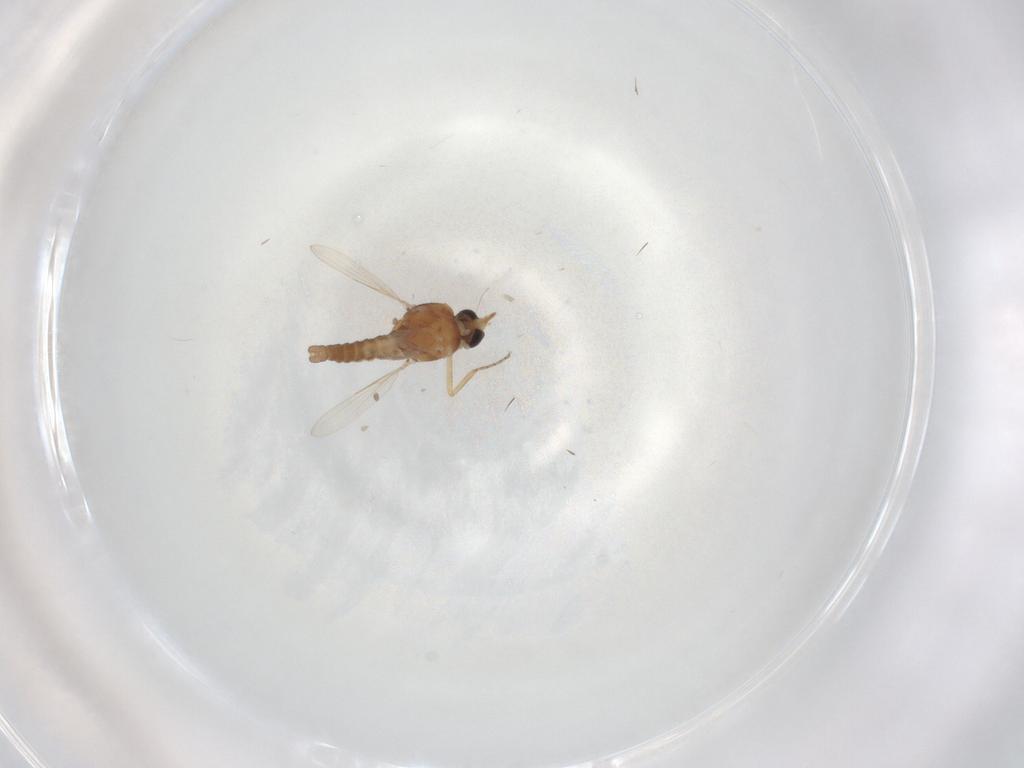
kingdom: Animalia
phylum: Arthropoda
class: Insecta
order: Diptera
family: Ceratopogonidae
